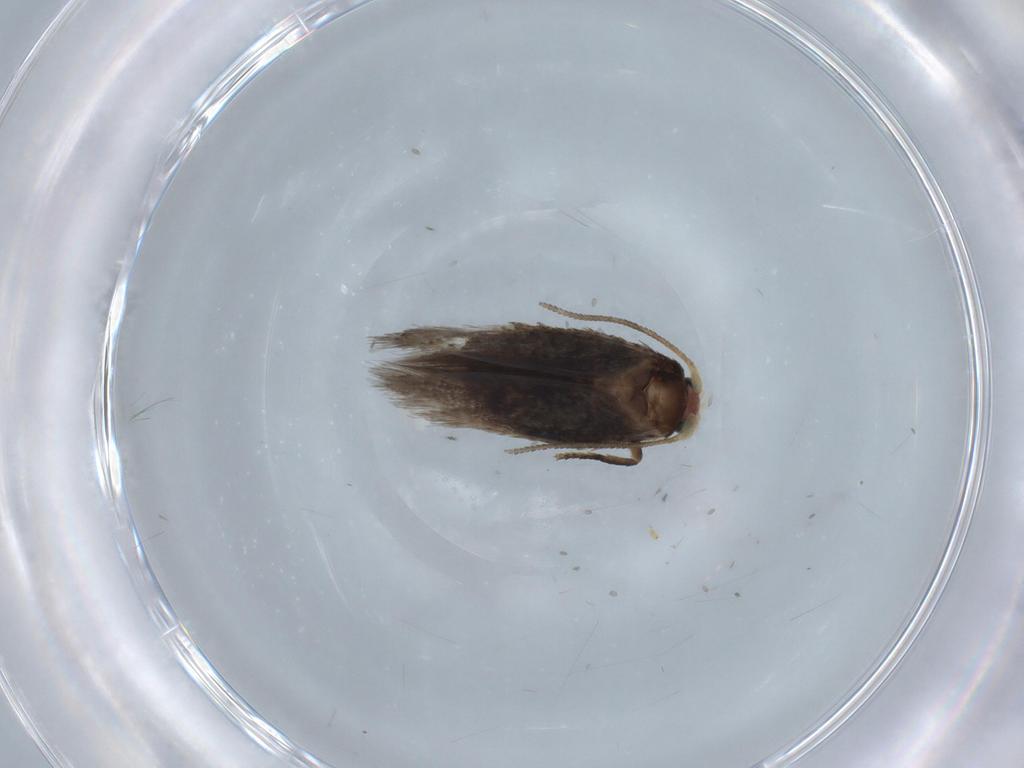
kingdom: Animalia
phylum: Arthropoda
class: Insecta
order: Lepidoptera
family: Nepticulidae
